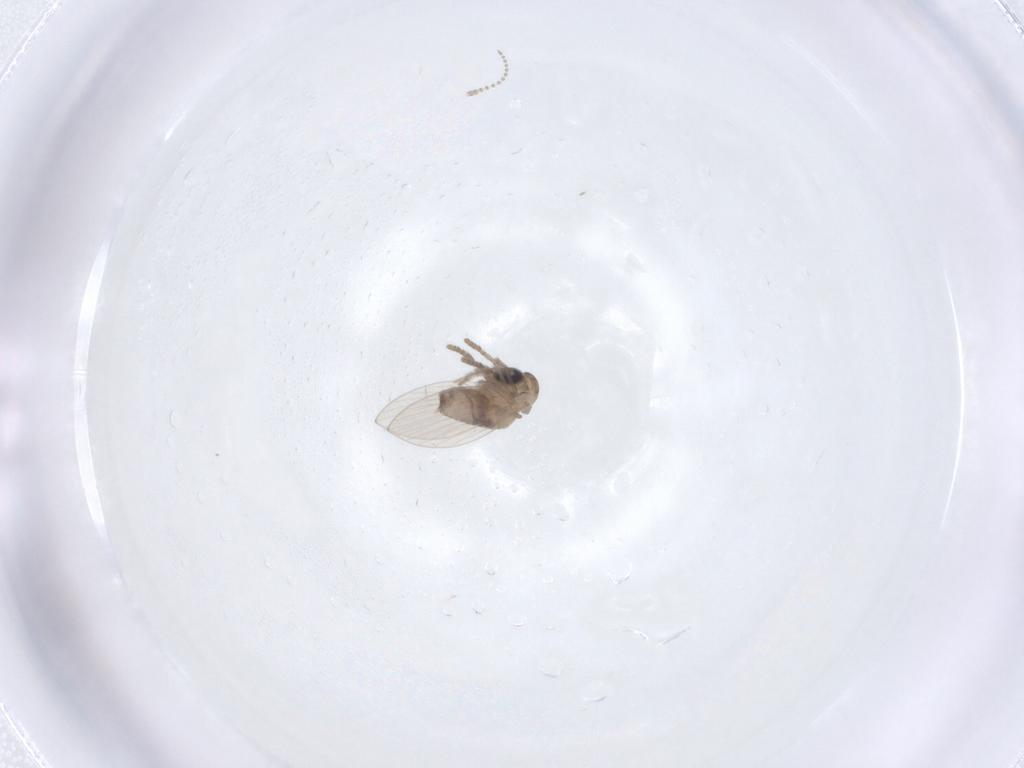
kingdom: Animalia
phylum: Arthropoda
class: Insecta
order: Diptera
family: Psychodidae
